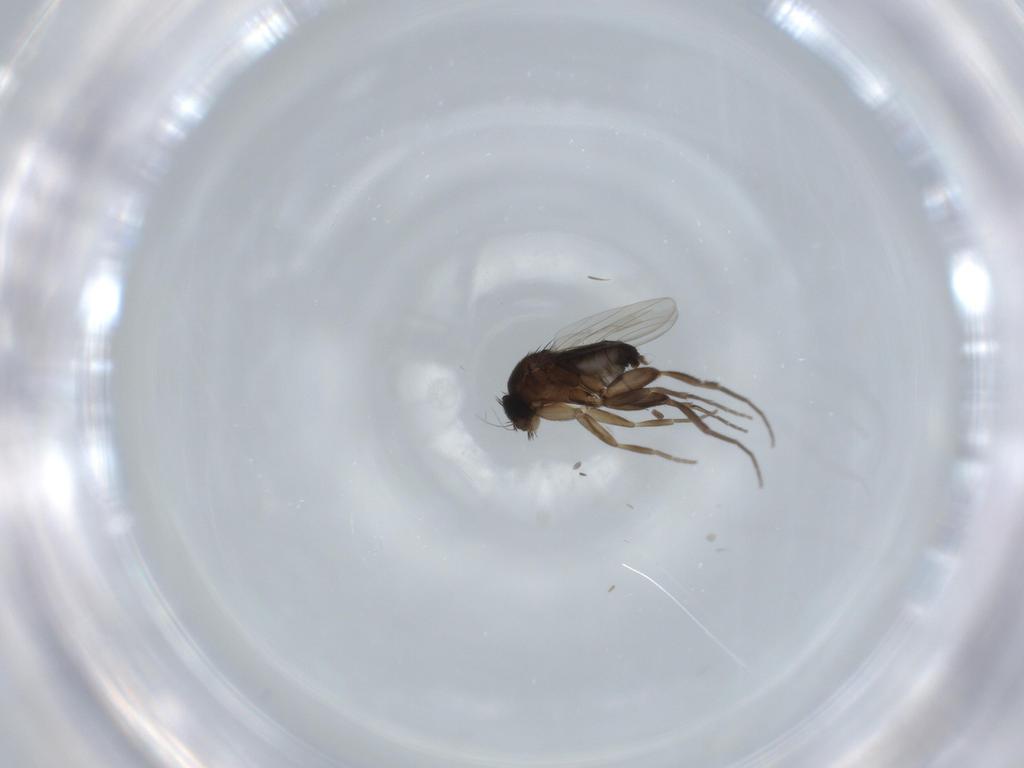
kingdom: Animalia
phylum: Arthropoda
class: Insecta
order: Diptera
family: Phoridae
